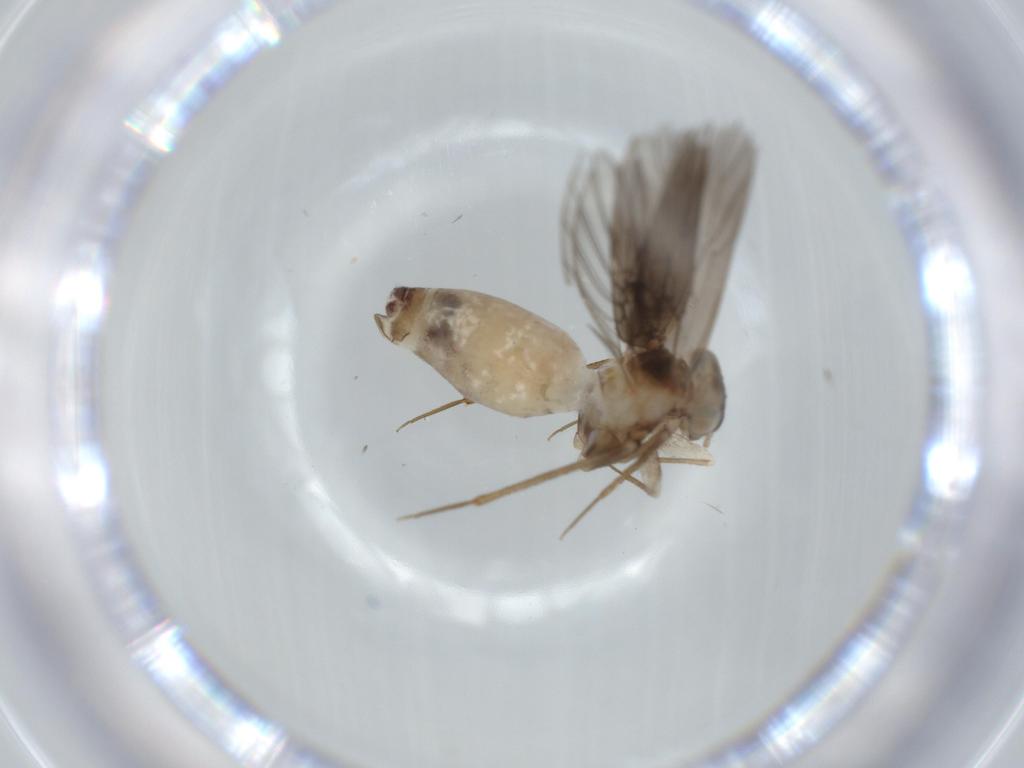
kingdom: Animalia
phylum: Arthropoda
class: Insecta
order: Psocodea
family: Lepidopsocidae
